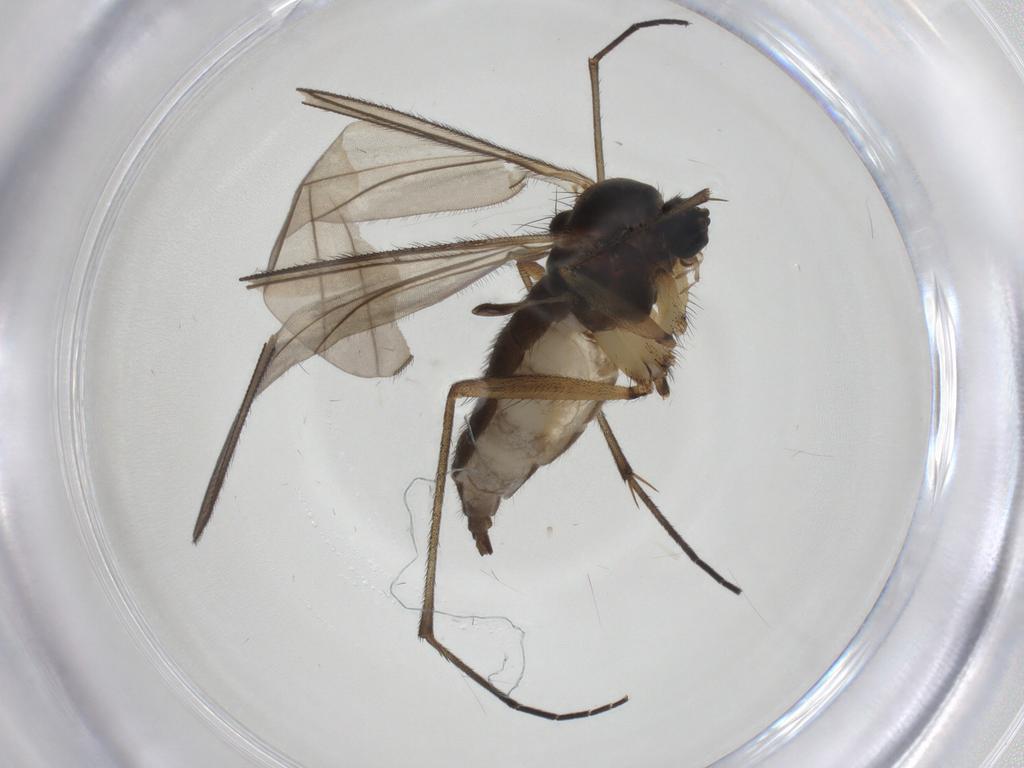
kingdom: Animalia
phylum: Arthropoda
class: Insecta
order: Diptera
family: Sciaridae
